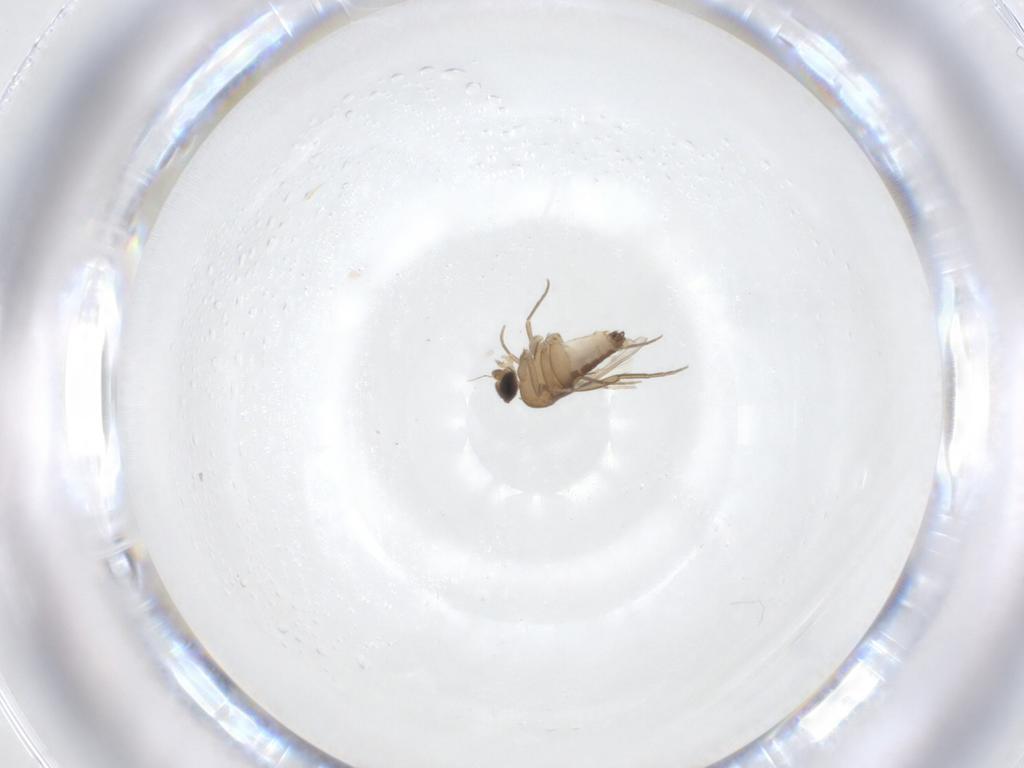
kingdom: Animalia
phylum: Arthropoda
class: Insecta
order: Diptera
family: Phoridae
